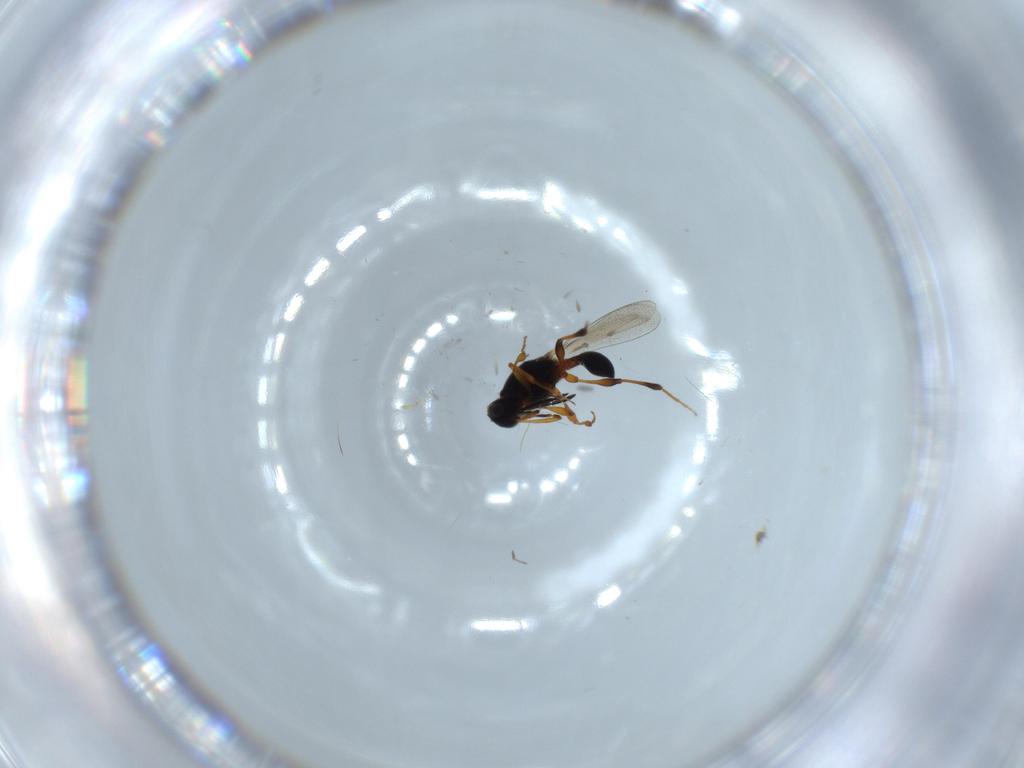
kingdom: Animalia
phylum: Arthropoda
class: Insecta
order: Hymenoptera
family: Platygastridae
